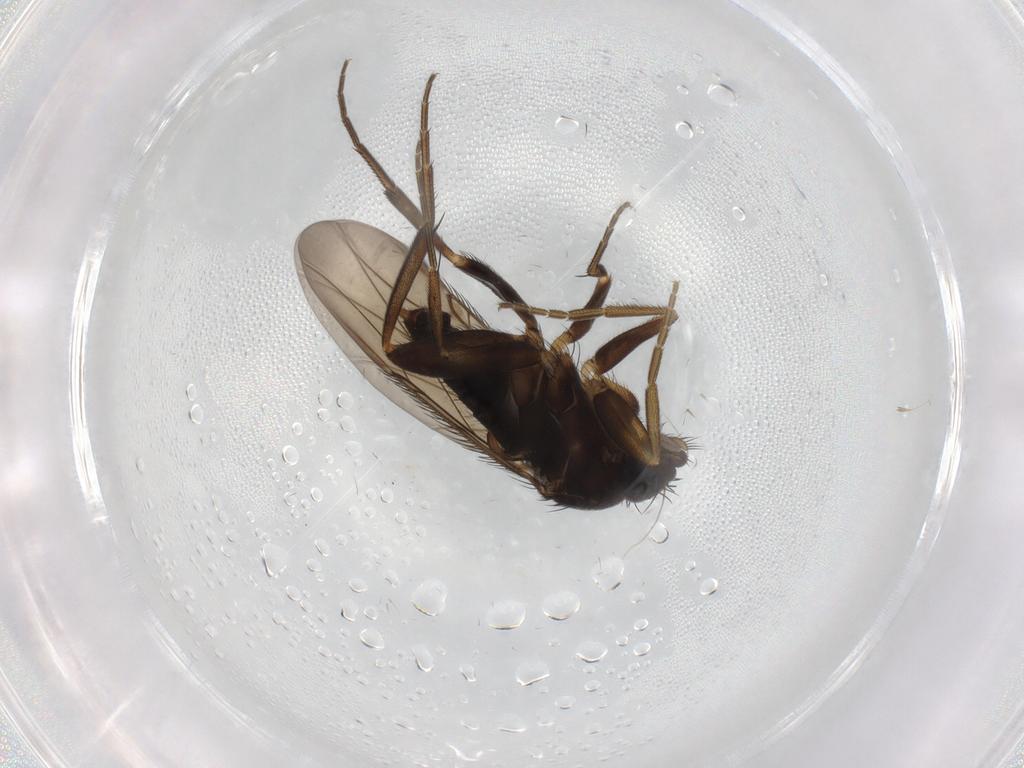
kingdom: Animalia
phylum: Arthropoda
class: Insecta
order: Diptera
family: Phoridae
